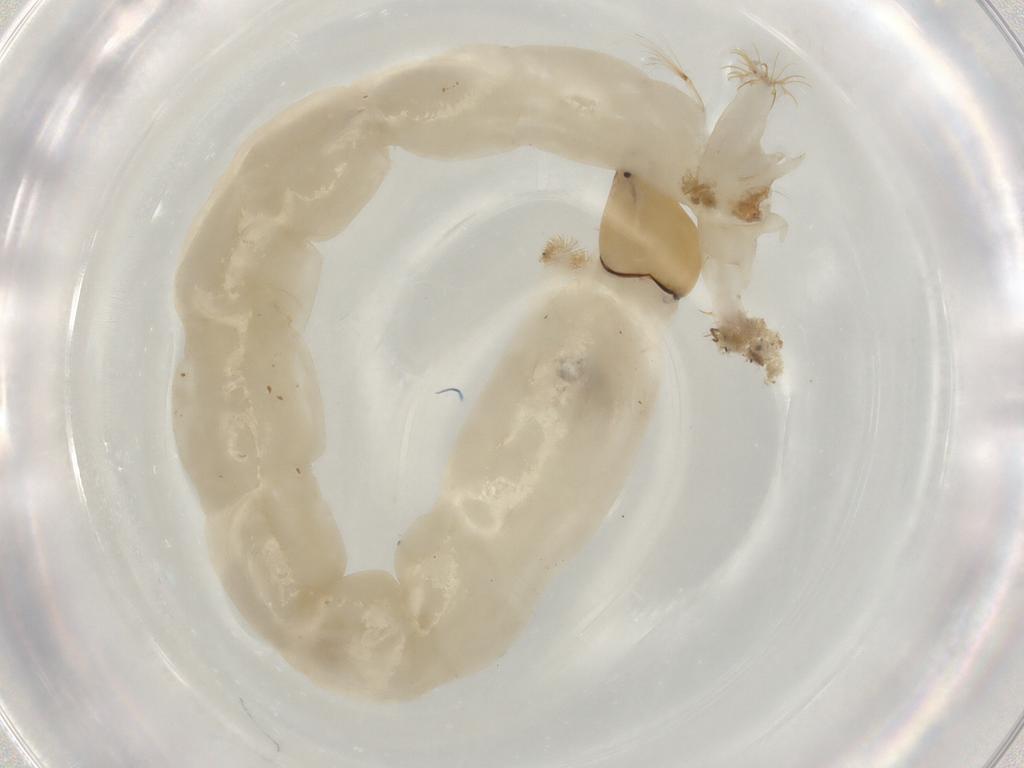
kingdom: Animalia
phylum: Arthropoda
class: Insecta
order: Diptera
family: Chironomidae
